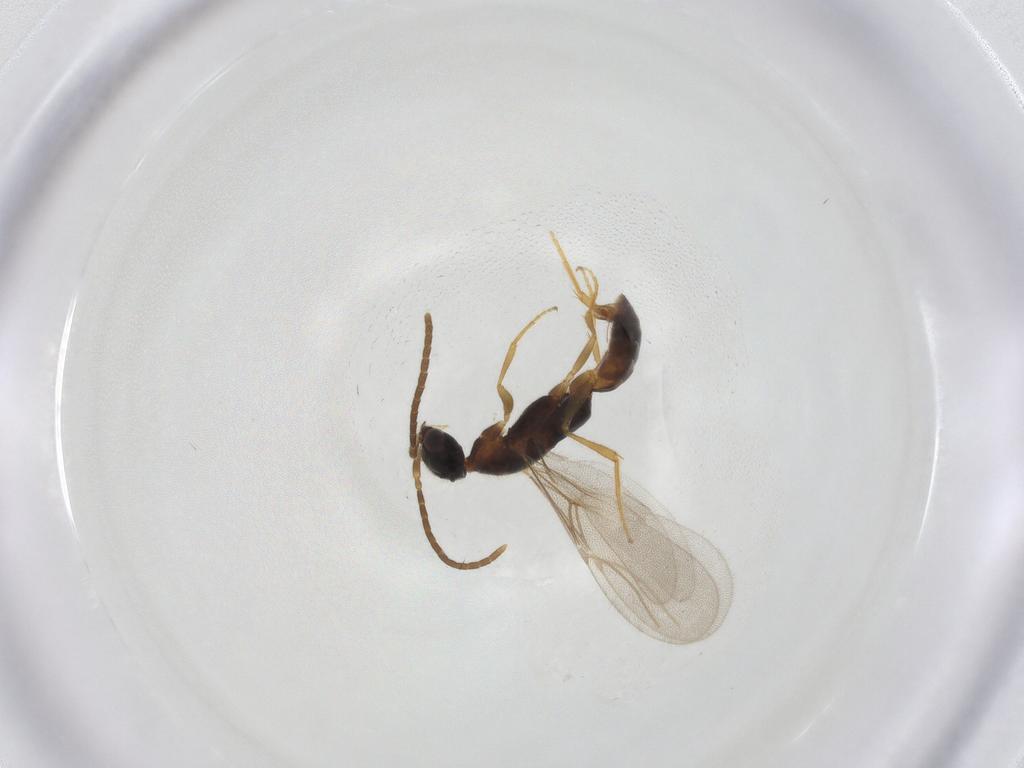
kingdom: Animalia
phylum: Arthropoda
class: Insecta
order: Hymenoptera
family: Bethylidae
